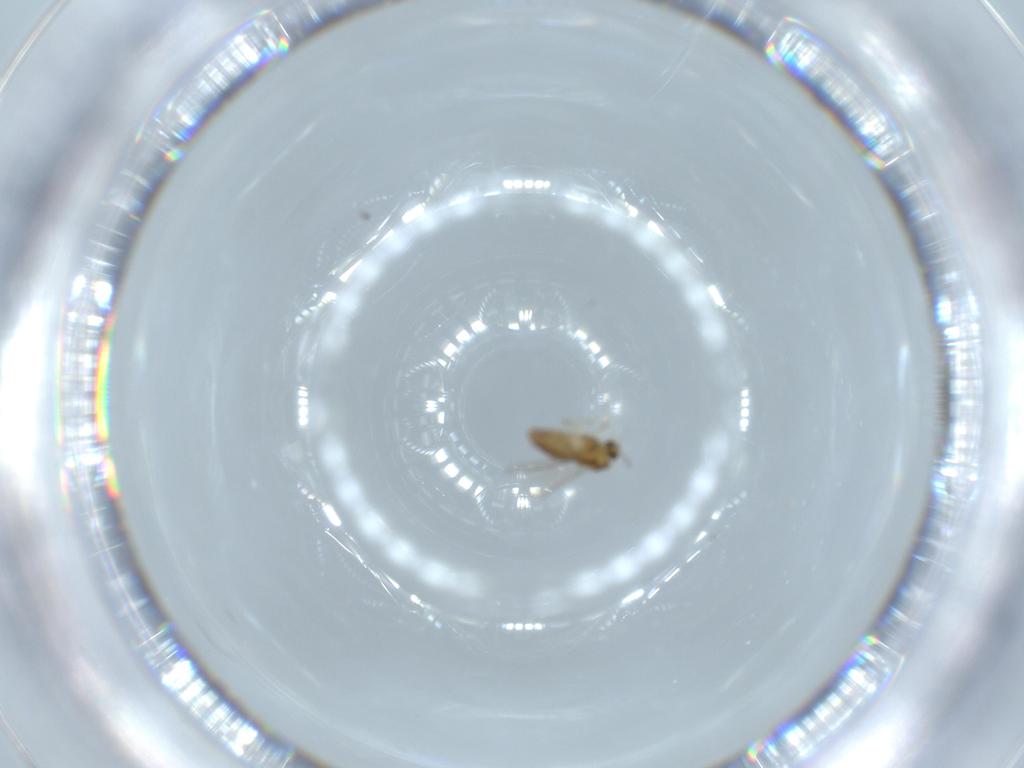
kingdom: Animalia
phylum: Arthropoda
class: Insecta
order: Diptera
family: Chironomidae
